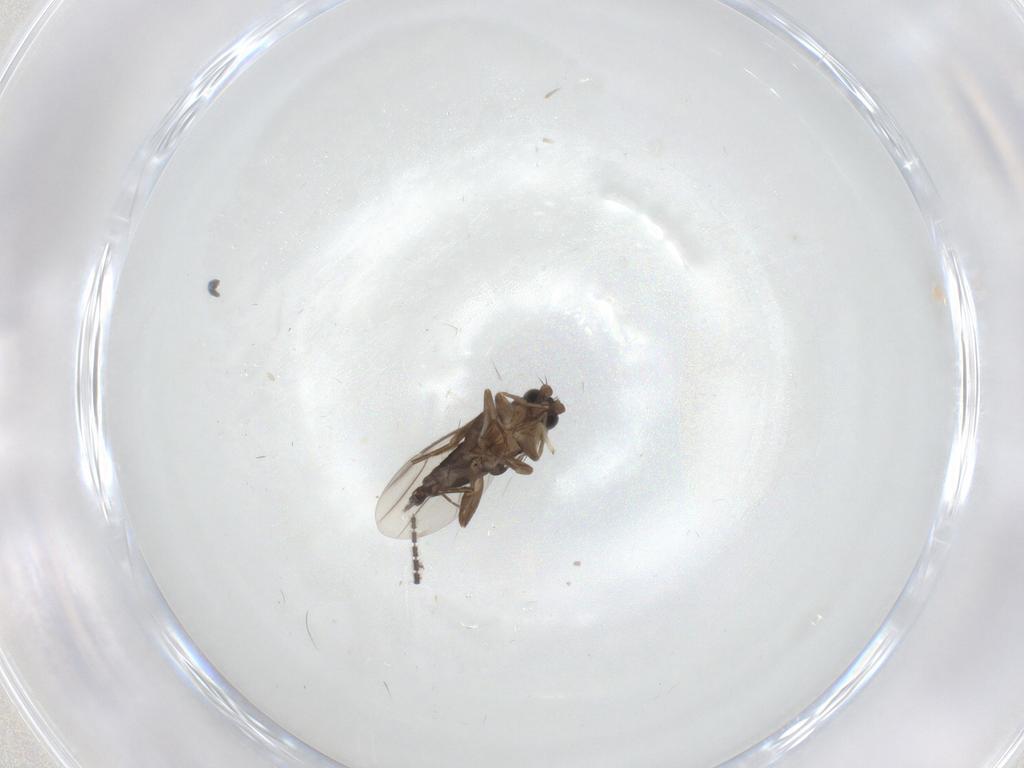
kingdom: Animalia
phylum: Arthropoda
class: Insecta
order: Diptera
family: Phoridae
